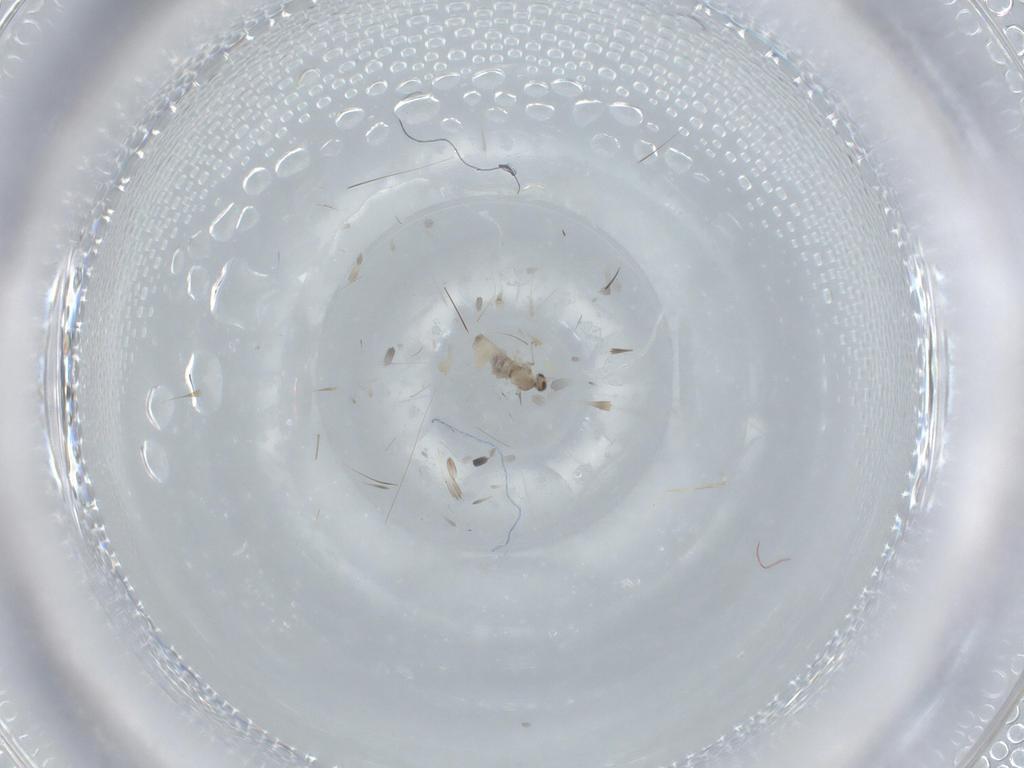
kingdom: Animalia
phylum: Arthropoda
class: Insecta
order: Diptera
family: Cecidomyiidae
